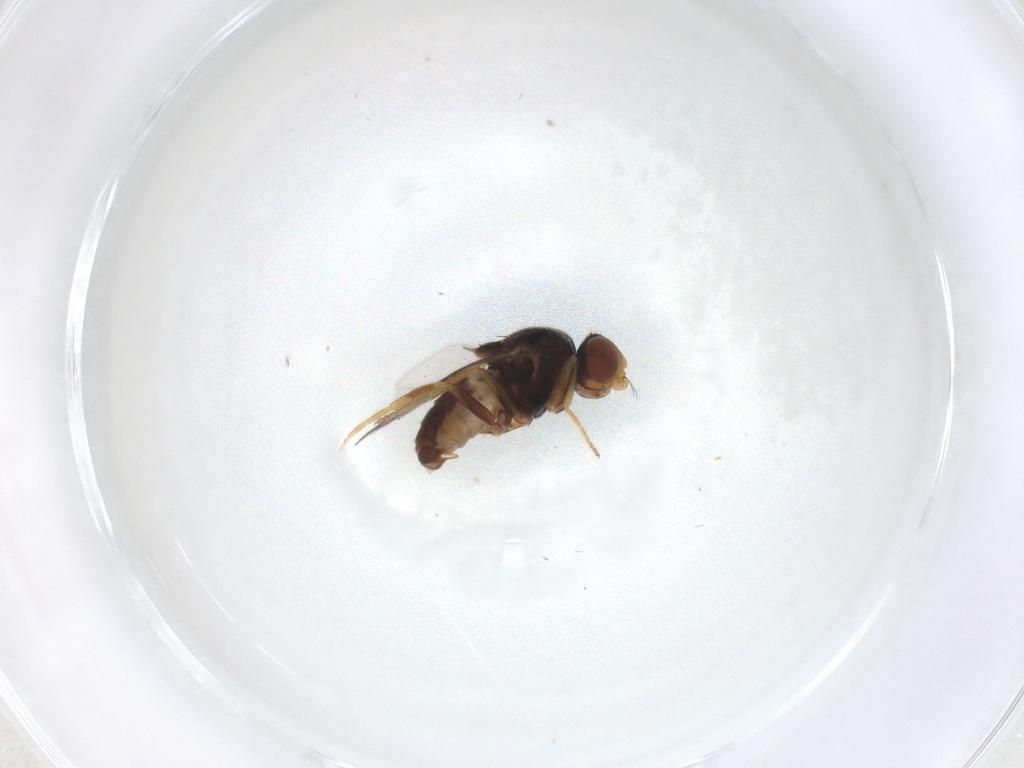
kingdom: Animalia
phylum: Arthropoda
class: Insecta
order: Diptera
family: Chloropidae
